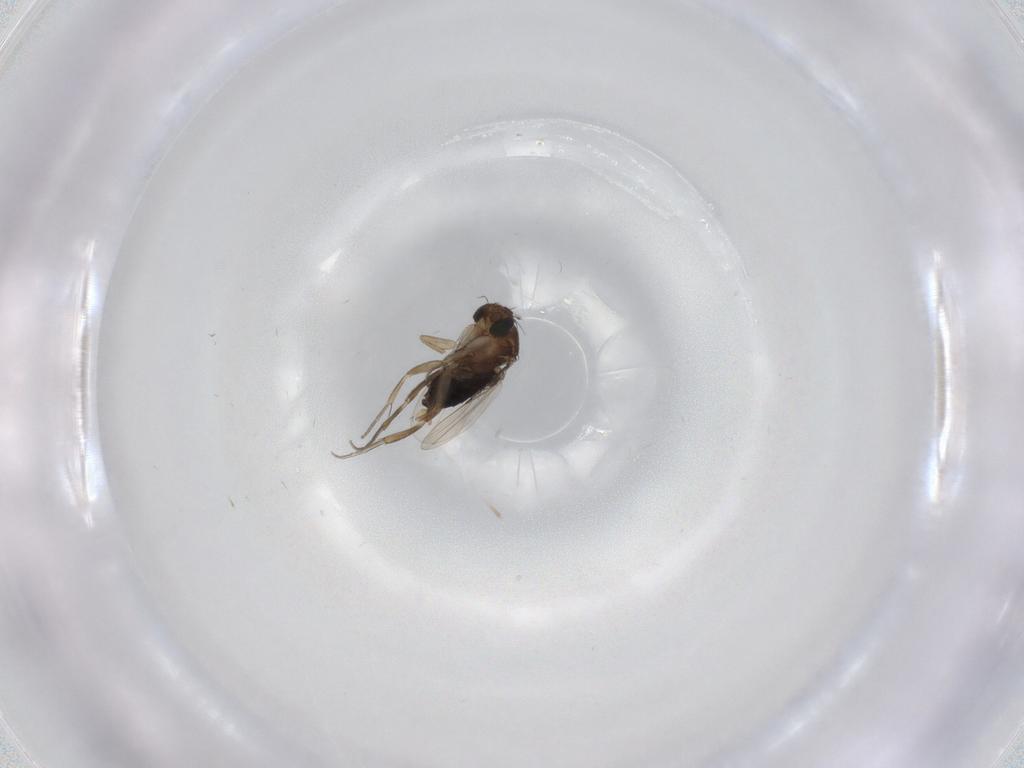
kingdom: Animalia
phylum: Arthropoda
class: Insecta
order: Diptera
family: Phoridae
